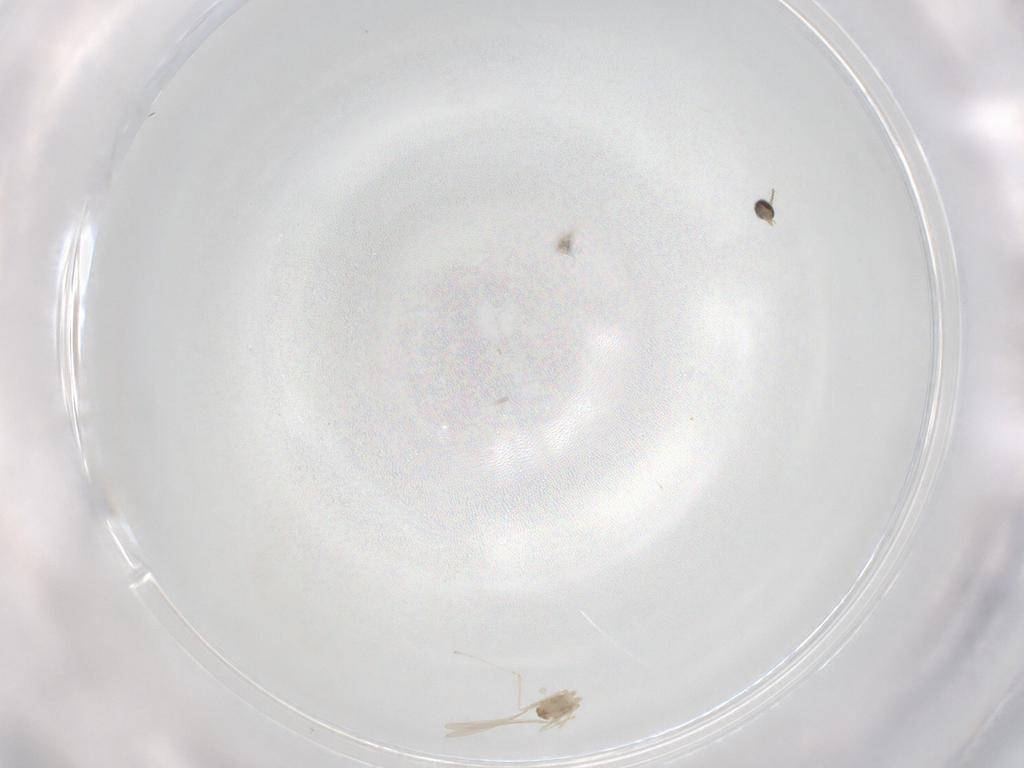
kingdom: Animalia
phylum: Arthropoda
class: Insecta
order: Diptera
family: Cecidomyiidae
